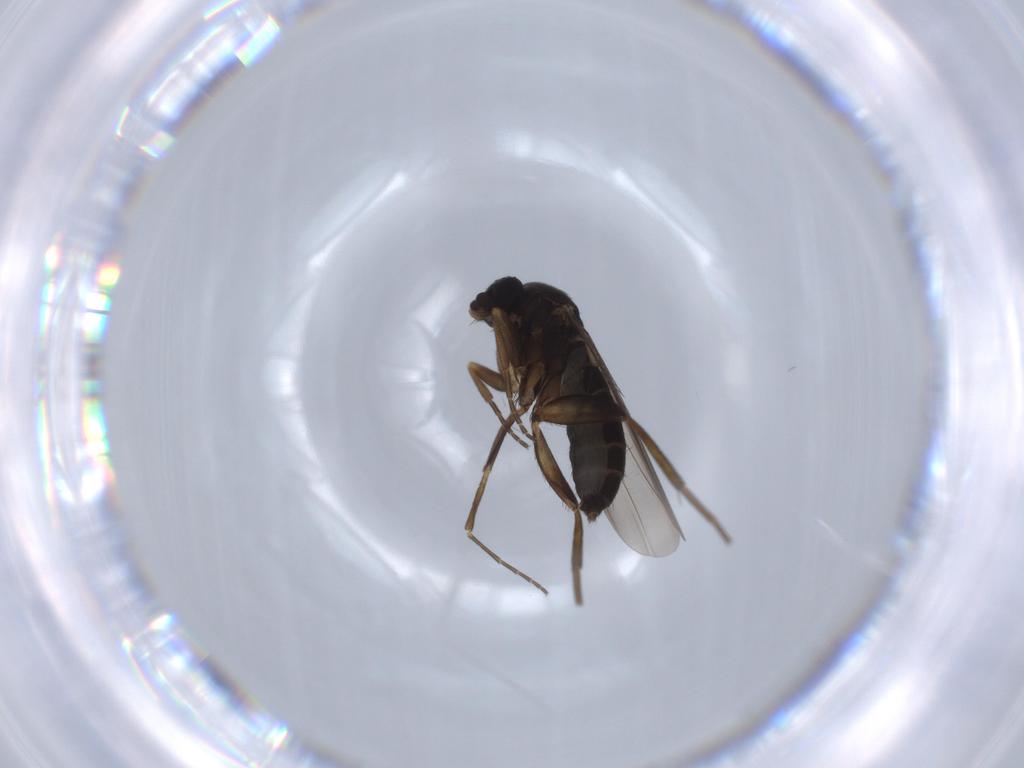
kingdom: Animalia
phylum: Arthropoda
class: Insecta
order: Diptera
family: Phoridae
